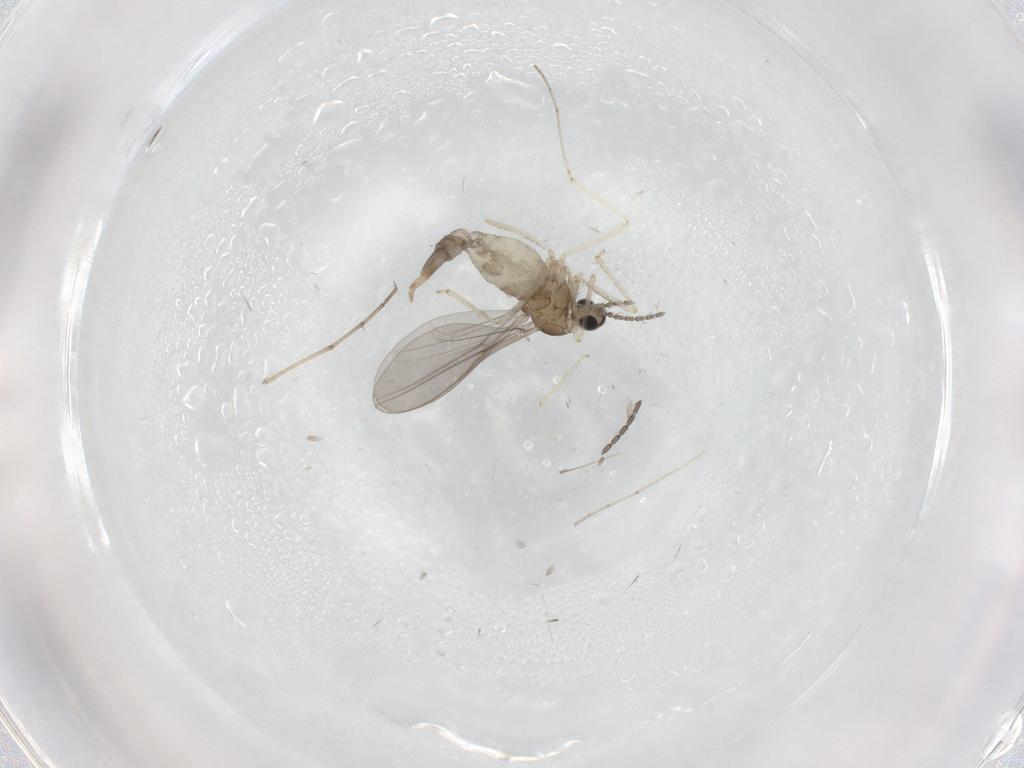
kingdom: Animalia
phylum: Arthropoda
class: Insecta
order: Diptera
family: Cecidomyiidae
